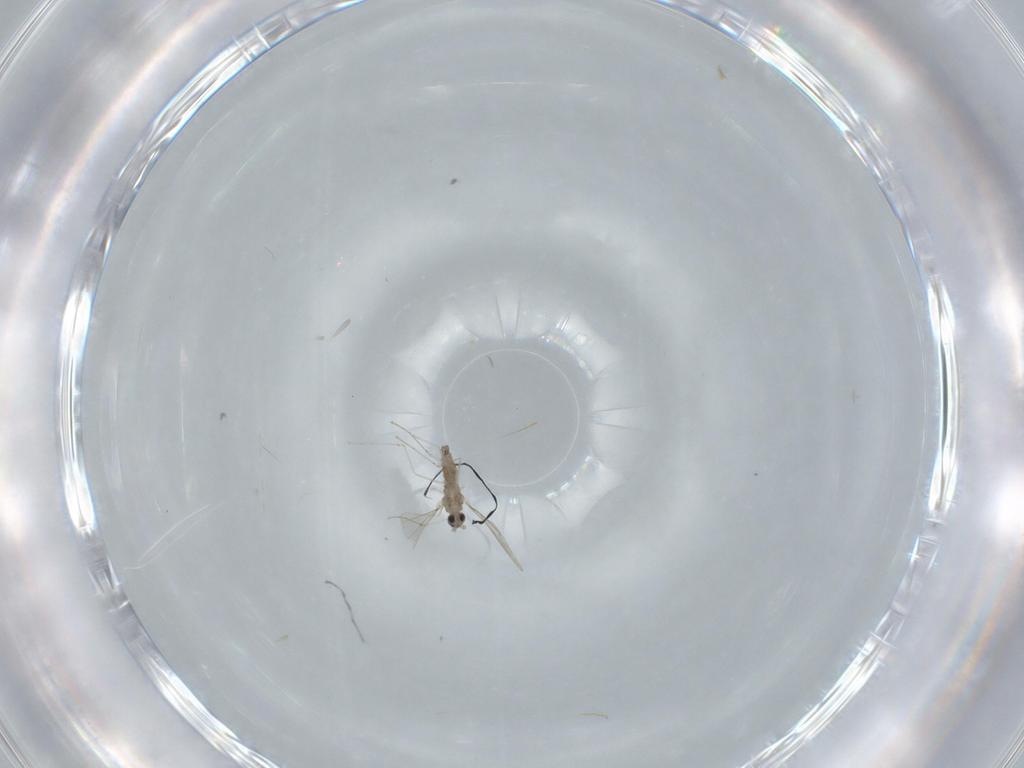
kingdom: Animalia
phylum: Arthropoda
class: Insecta
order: Diptera
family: Cecidomyiidae
